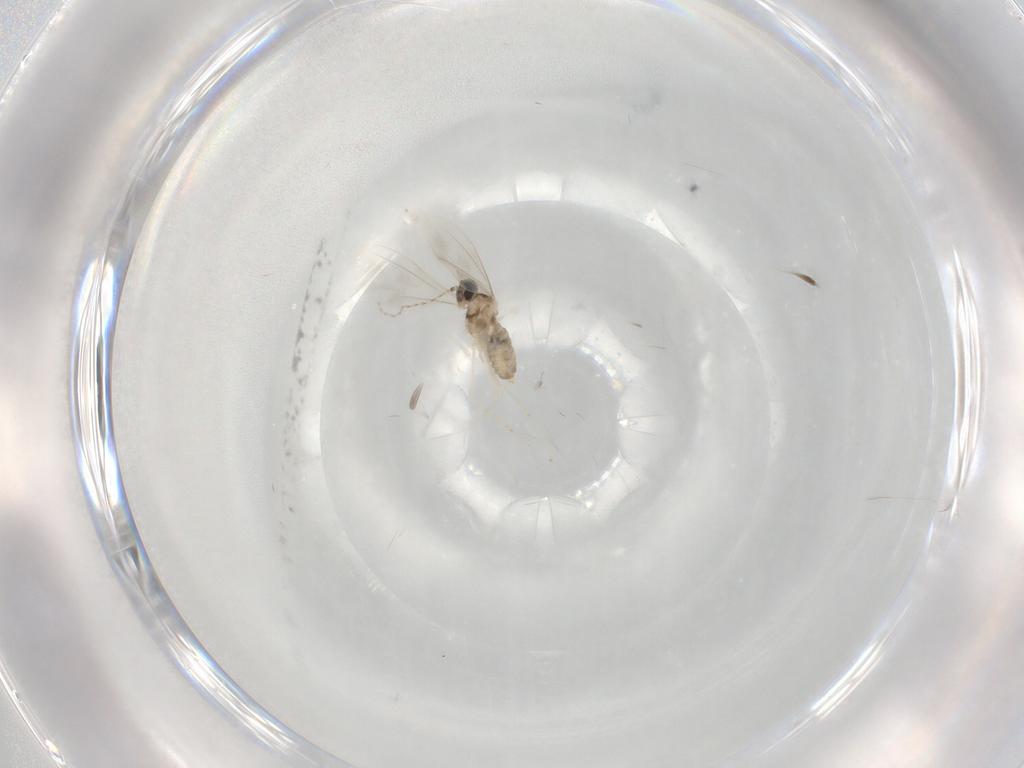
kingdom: Animalia
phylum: Arthropoda
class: Insecta
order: Diptera
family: Cecidomyiidae
